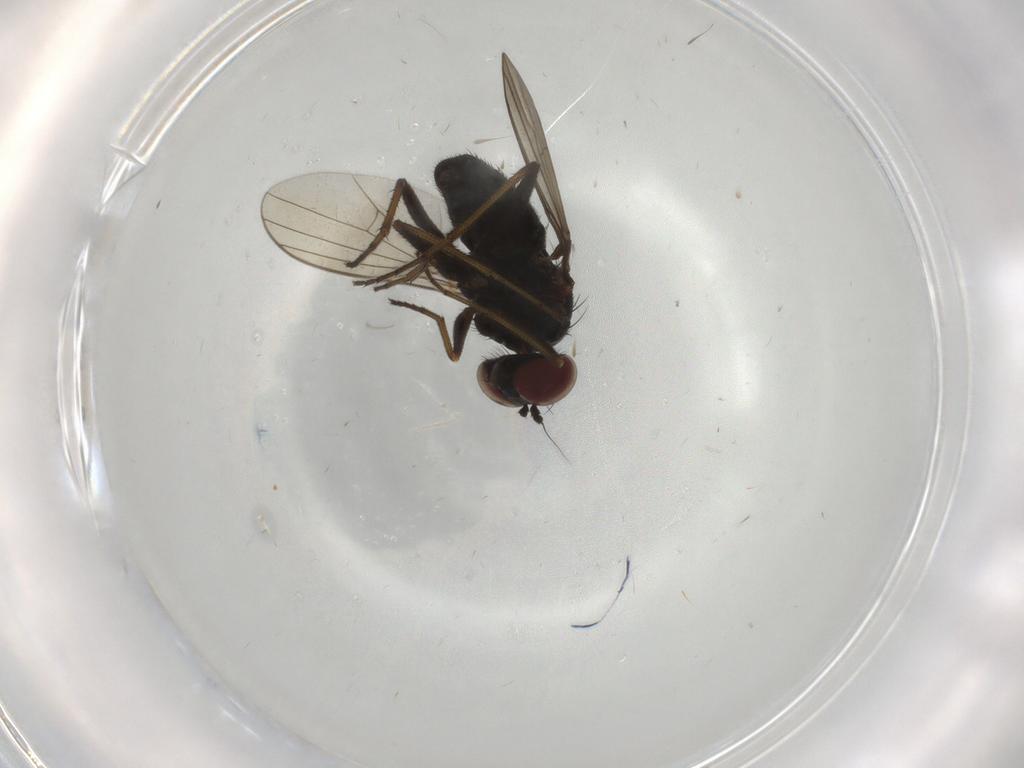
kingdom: Animalia
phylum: Arthropoda
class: Insecta
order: Diptera
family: Dolichopodidae
